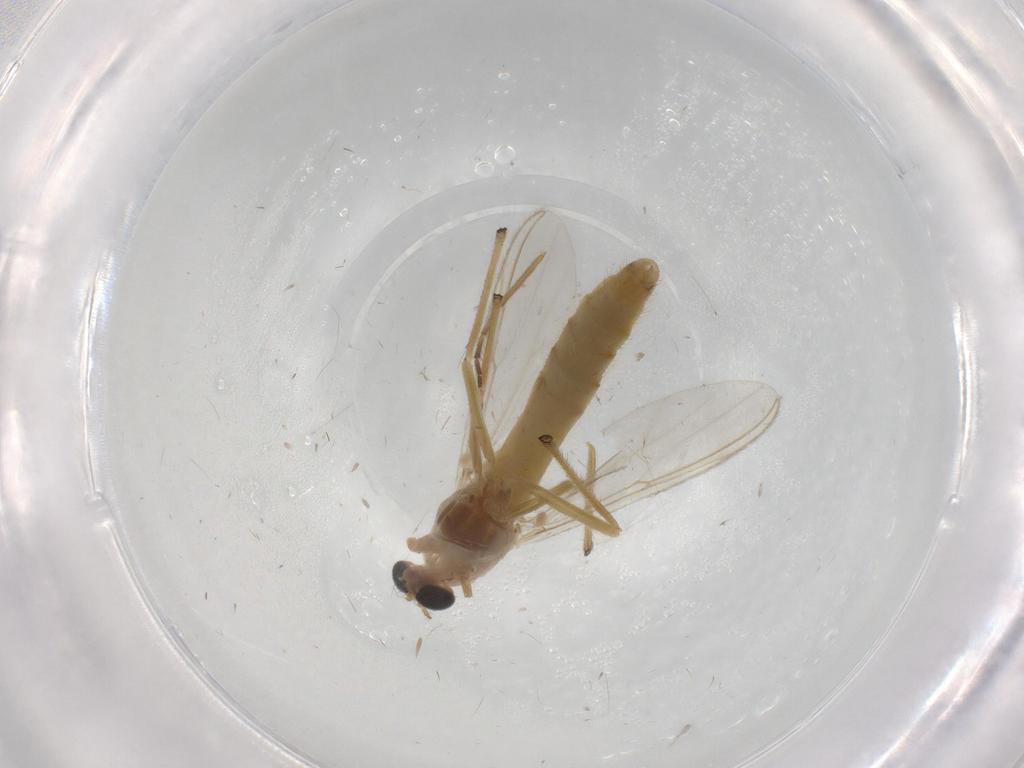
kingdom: Animalia
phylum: Arthropoda
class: Insecta
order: Diptera
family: Chironomidae
